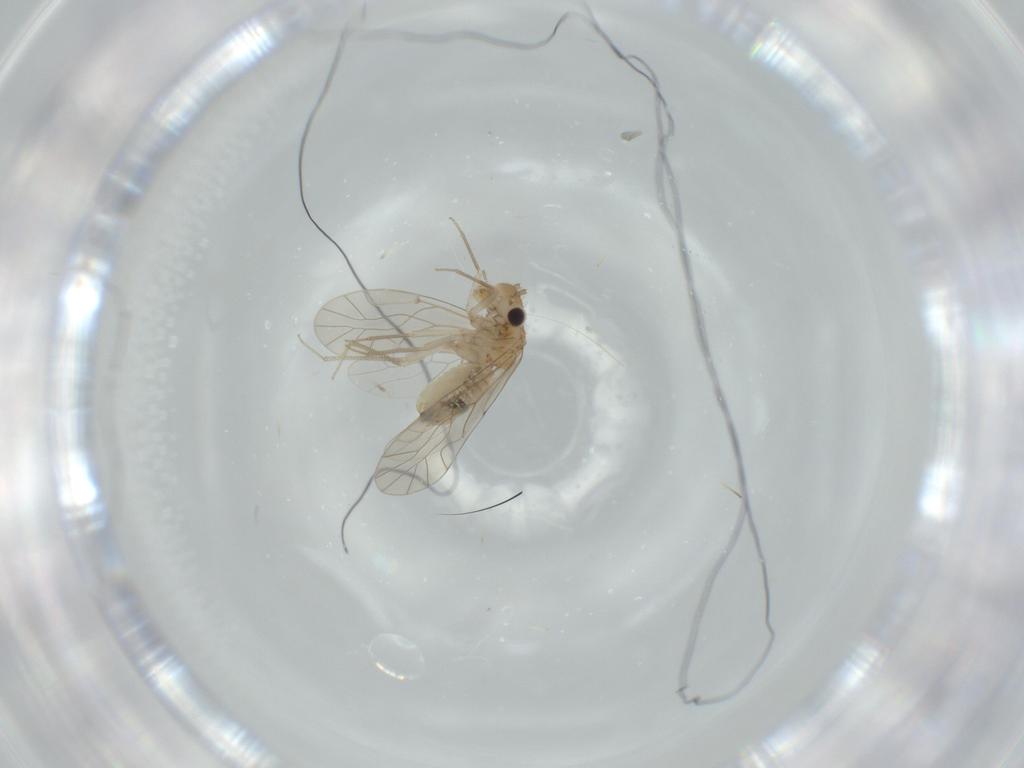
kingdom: Animalia
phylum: Arthropoda
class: Insecta
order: Psocodea
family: Lachesillidae
